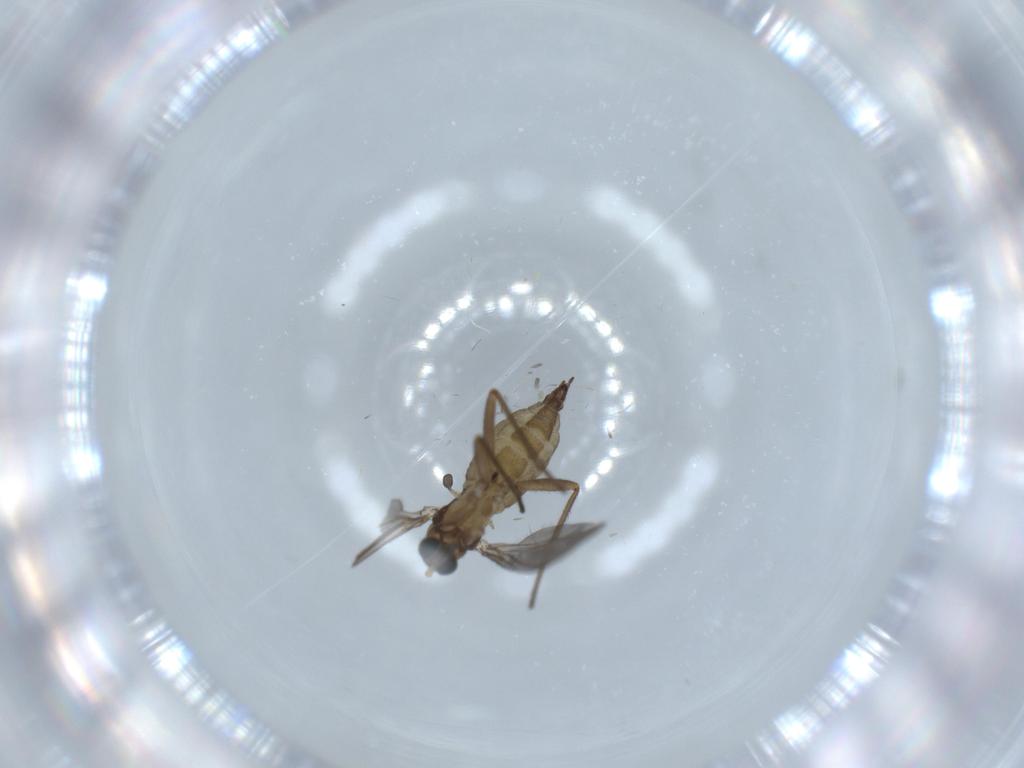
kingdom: Animalia
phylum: Arthropoda
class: Insecta
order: Diptera
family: Sciaridae
